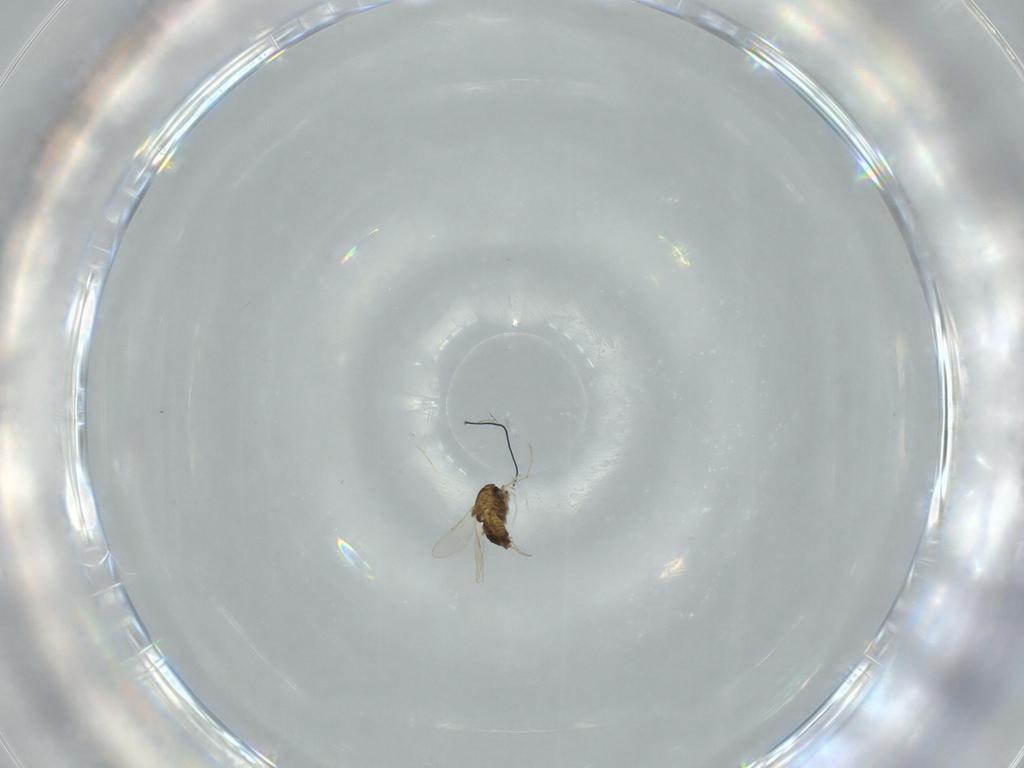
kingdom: Animalia
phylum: Arthropoda
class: Insecta
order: Diptera
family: Chironomidae
